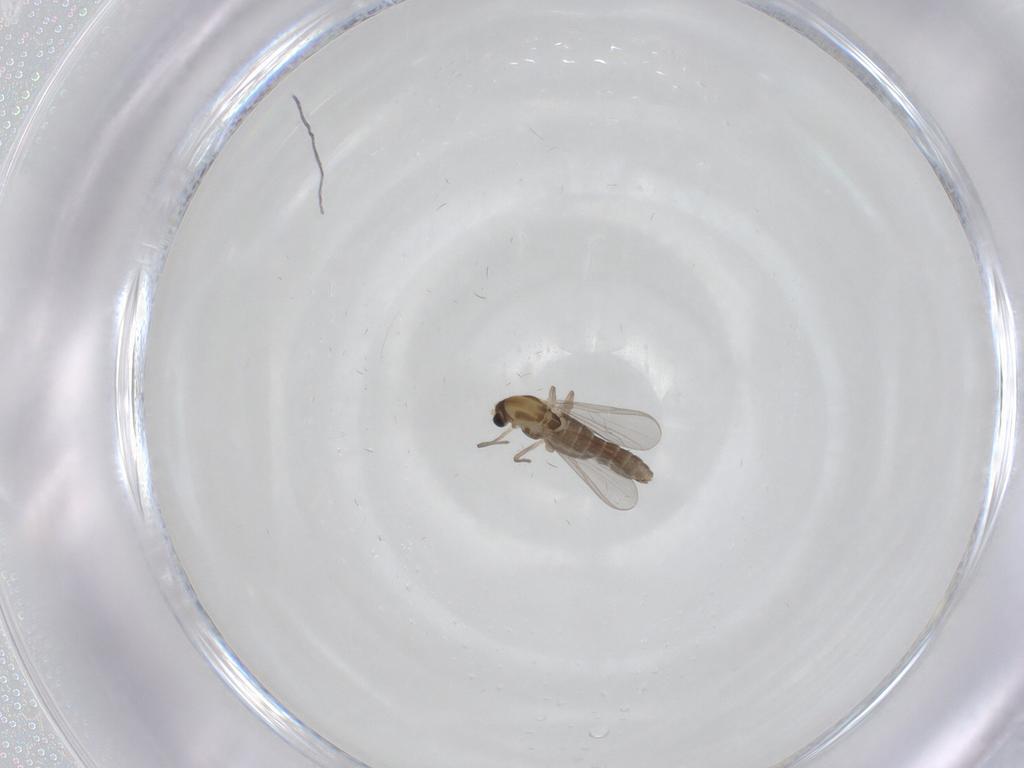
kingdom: Animalia
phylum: Arthropoda
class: Insecta
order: Diptera
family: Chironomidae
